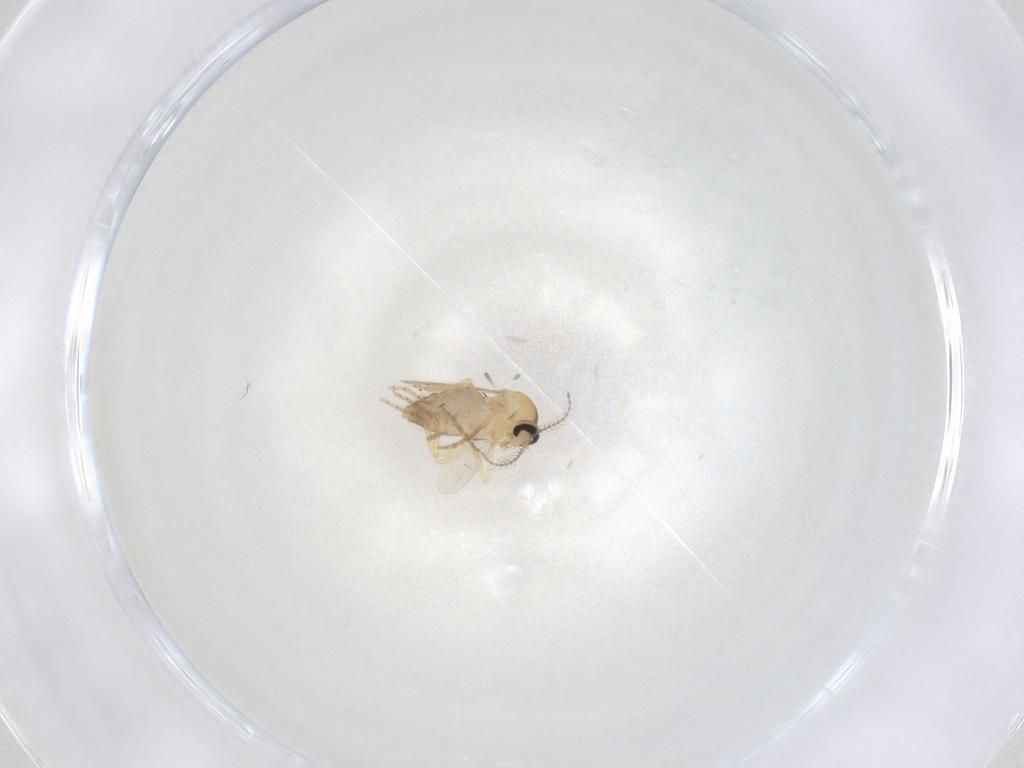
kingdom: Animalia
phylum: Arthropoda
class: Insecta
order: Diptera
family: Ceratopogonidae
